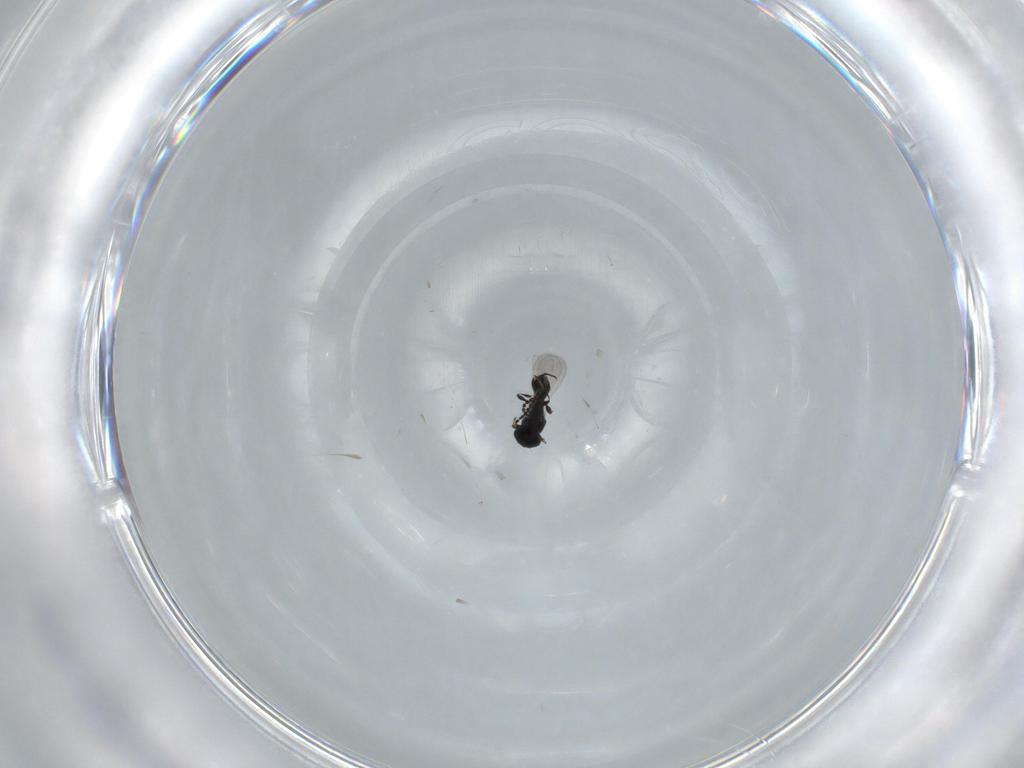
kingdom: Animalia
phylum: Arthropoda
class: Insecta
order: Hymenoptera
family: Platygastridae
